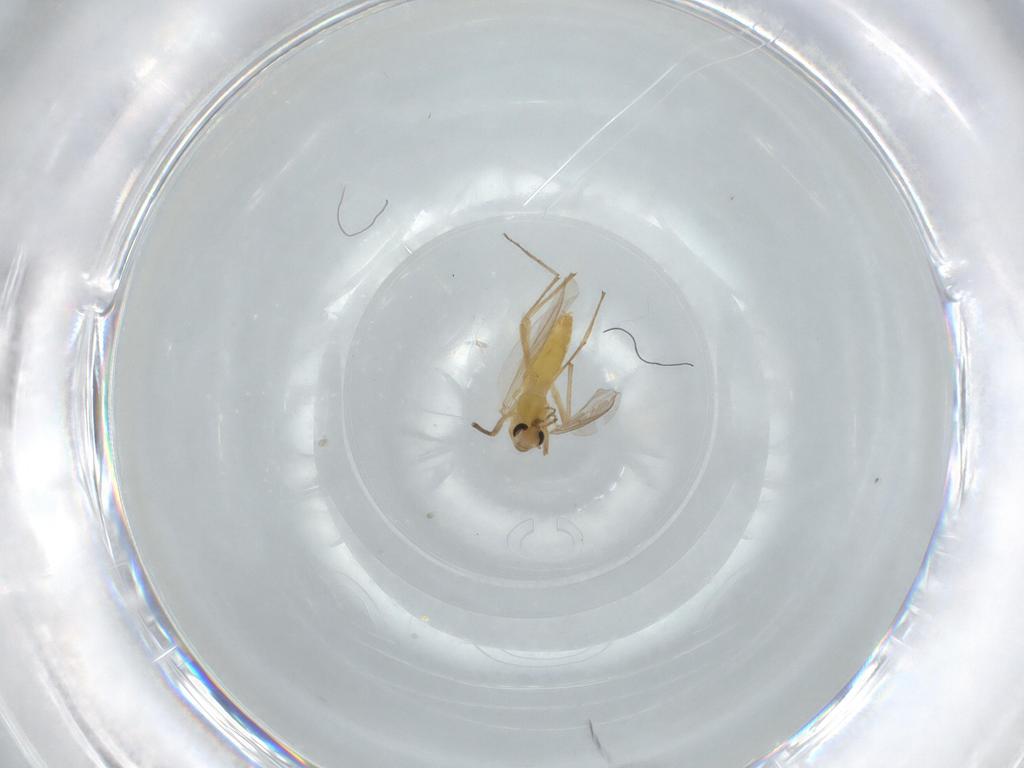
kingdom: Animalia
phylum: Arthropoda
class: Insecta
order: Diptera
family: Chironomidae
